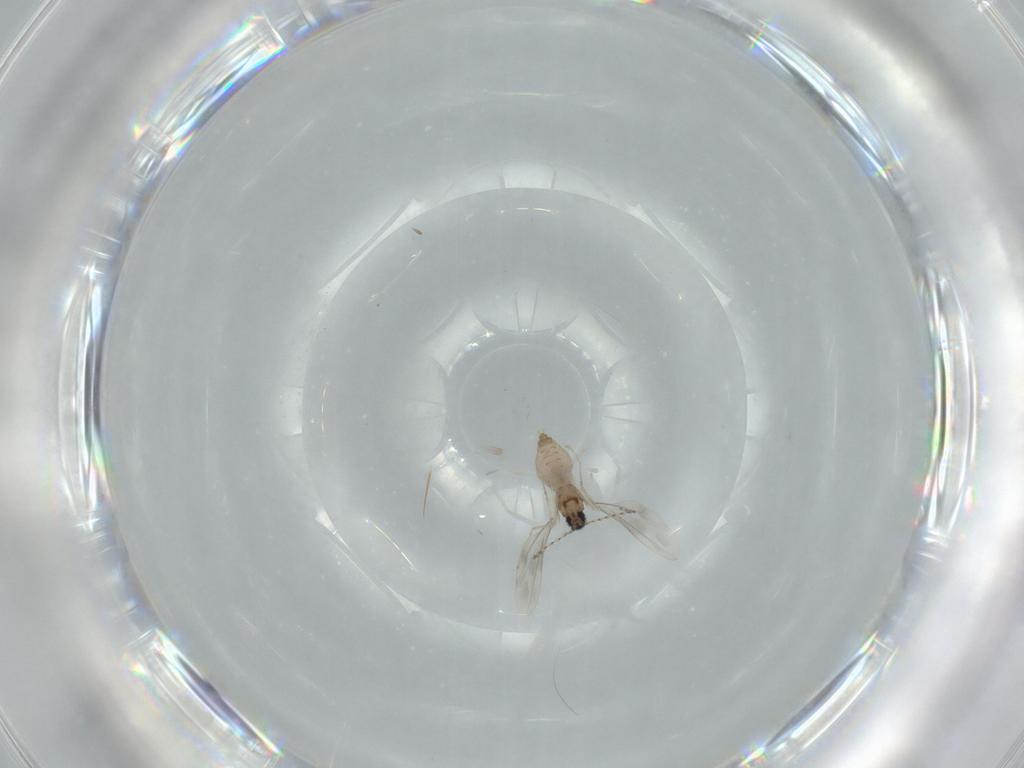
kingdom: Animalia
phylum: Arthropoda
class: Insecta
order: Diptera
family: Cecidomyiidae
